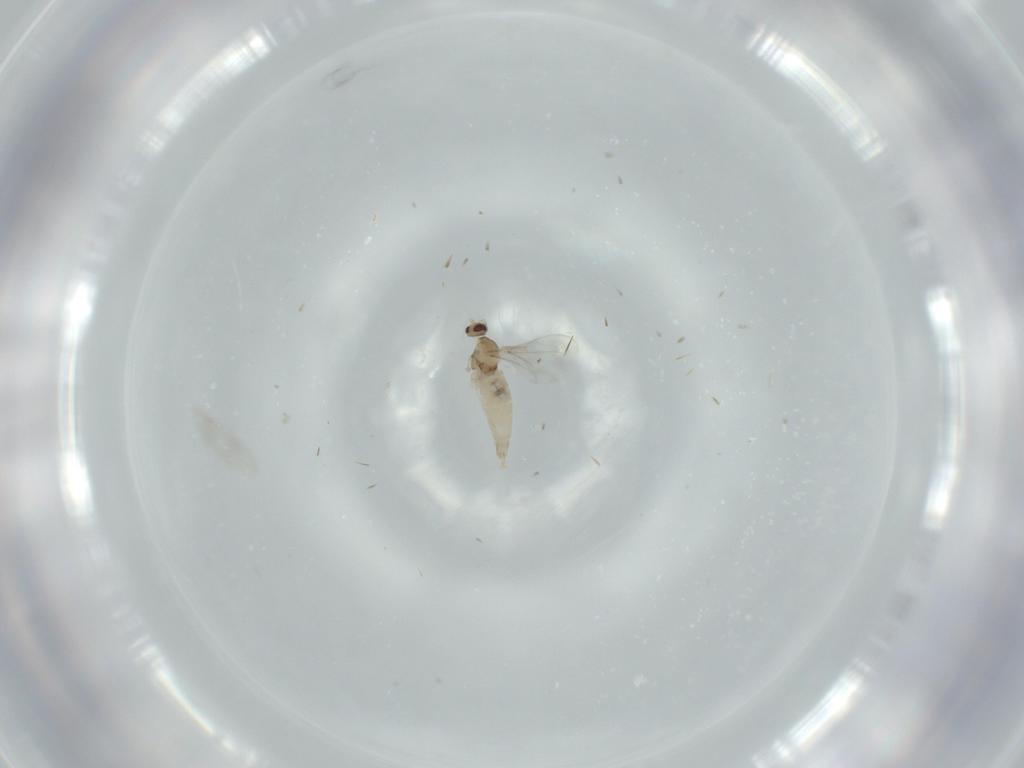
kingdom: Animalia
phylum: Arthropoda
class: Insecta
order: Diptera
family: Cecidomyiidae
